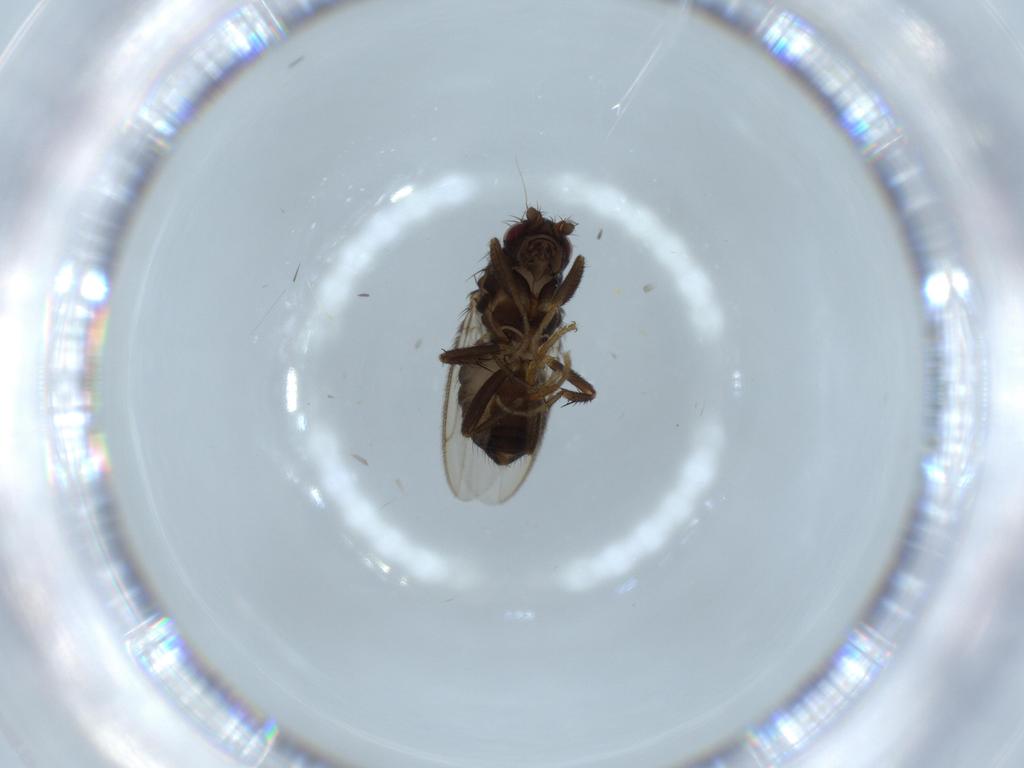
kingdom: Animalia
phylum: Arthropoda
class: Insecta
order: Diptera
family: Sphaeroceridae
